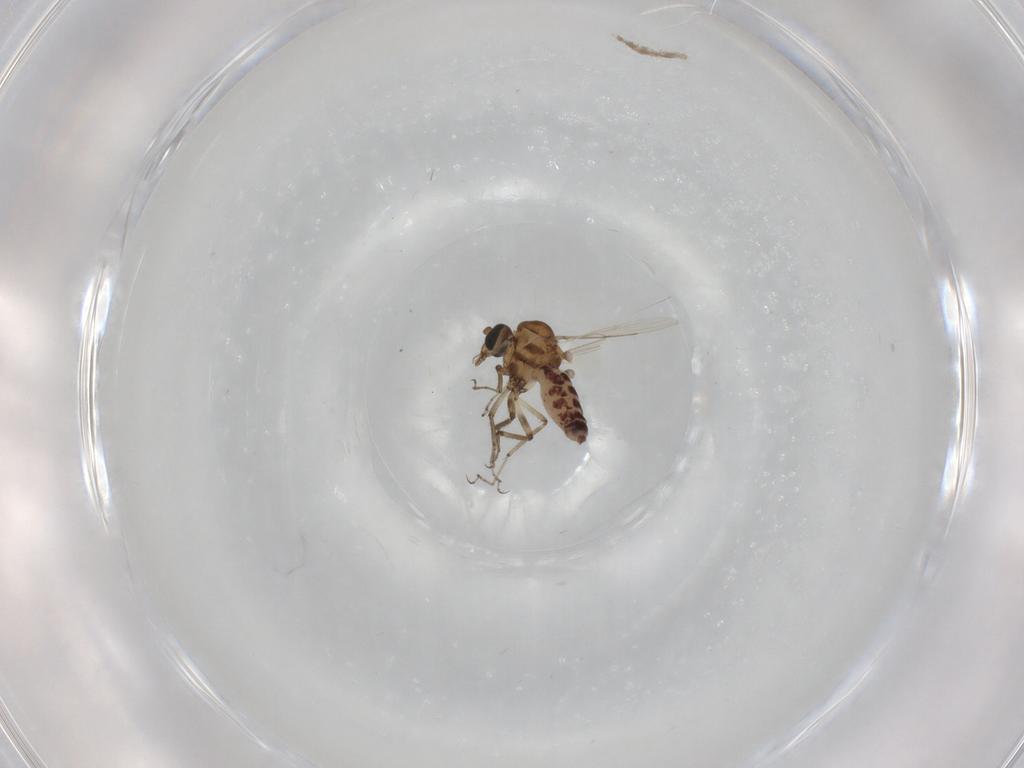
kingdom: Animalia
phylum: Arthropoda
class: Insecta
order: Diptera
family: Ceratopogonidae
